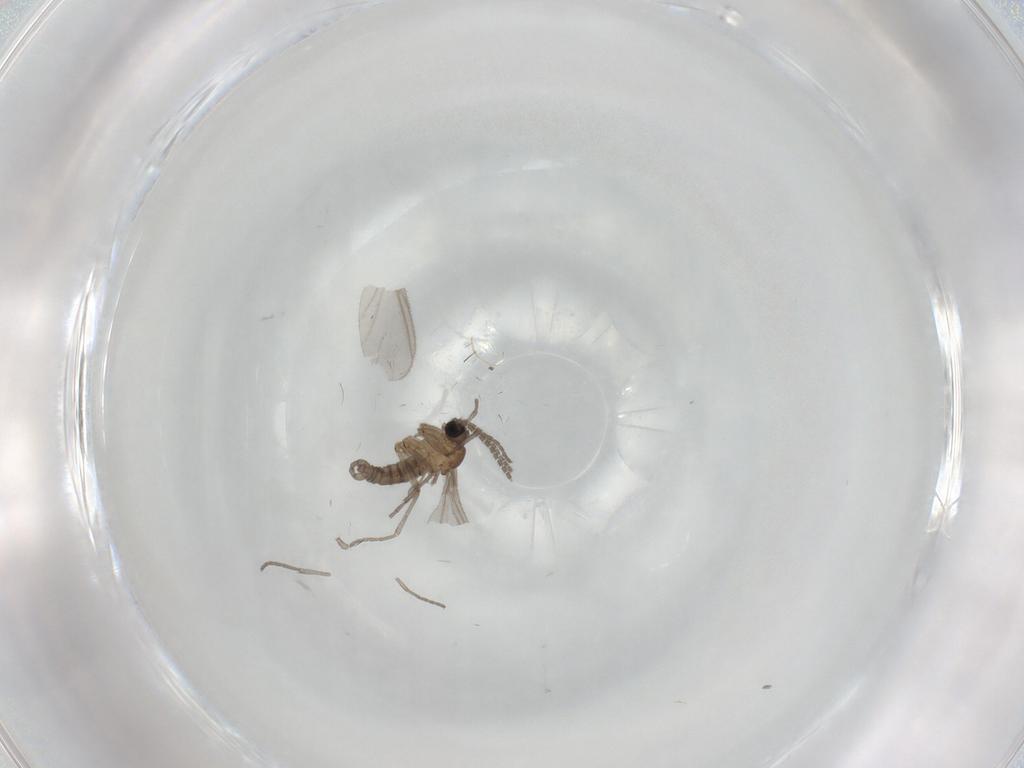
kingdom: Animalia
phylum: Arthropoda
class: Insecta
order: Diptera
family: Sciaridae
